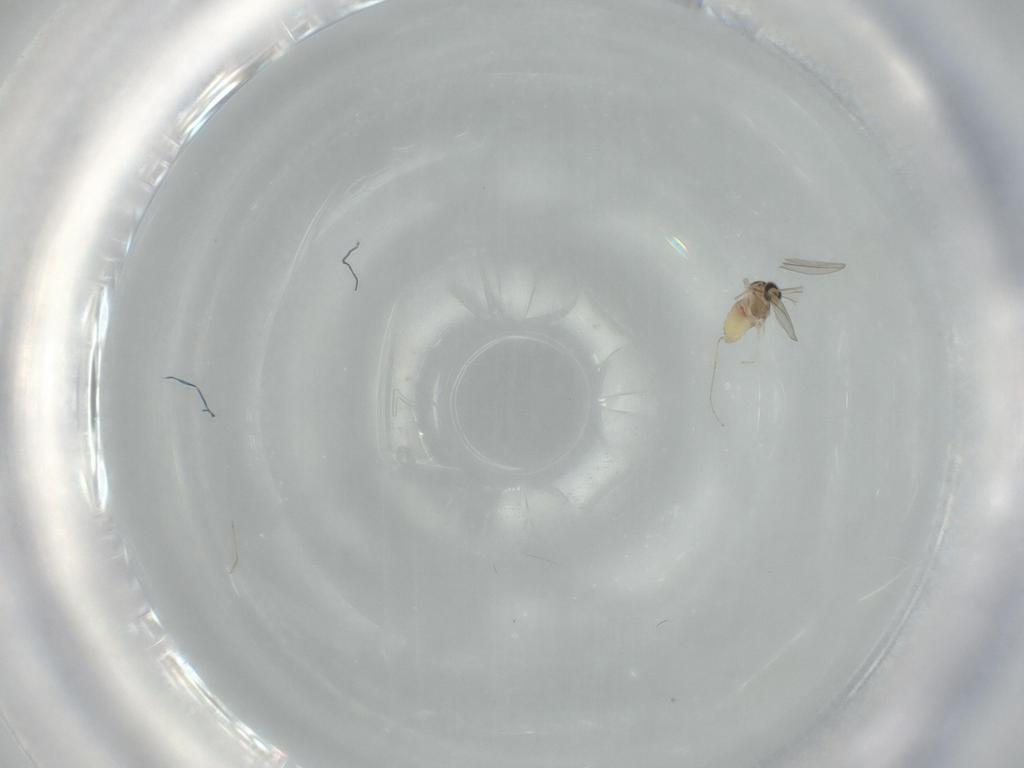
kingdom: Animalia
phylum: Arthropoda
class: Insecta
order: Diptera
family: Cecidomyiidae
